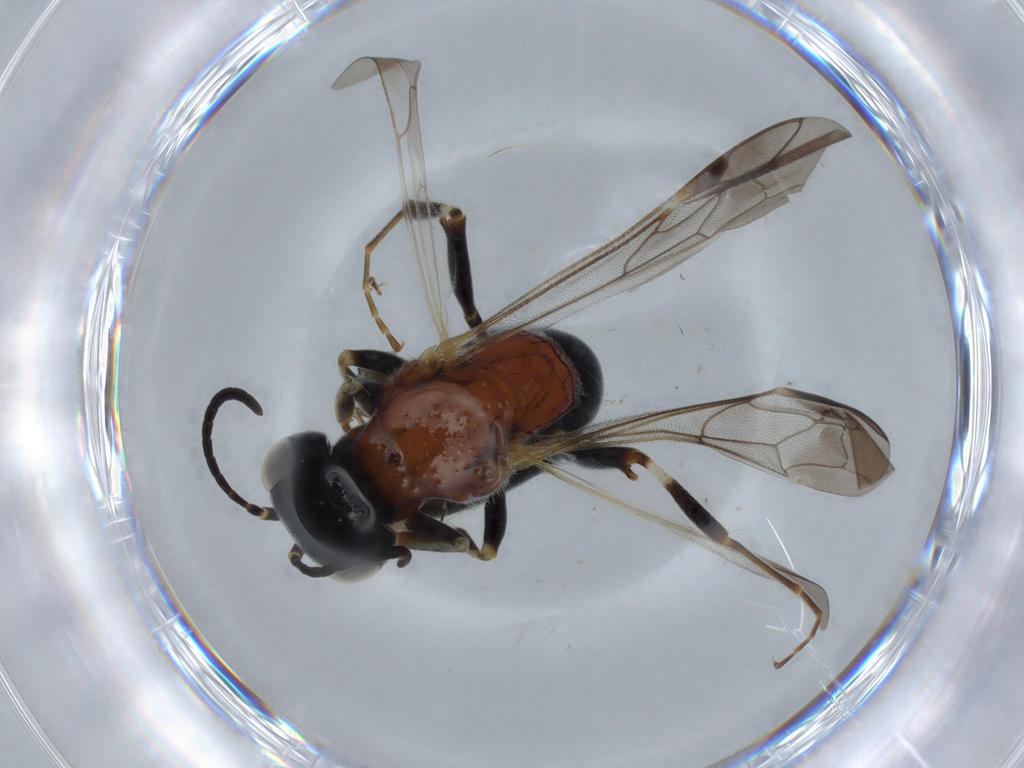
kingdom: Animalia
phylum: Arthropoda
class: Insecta
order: Hymenoptera
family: Bembicidae
